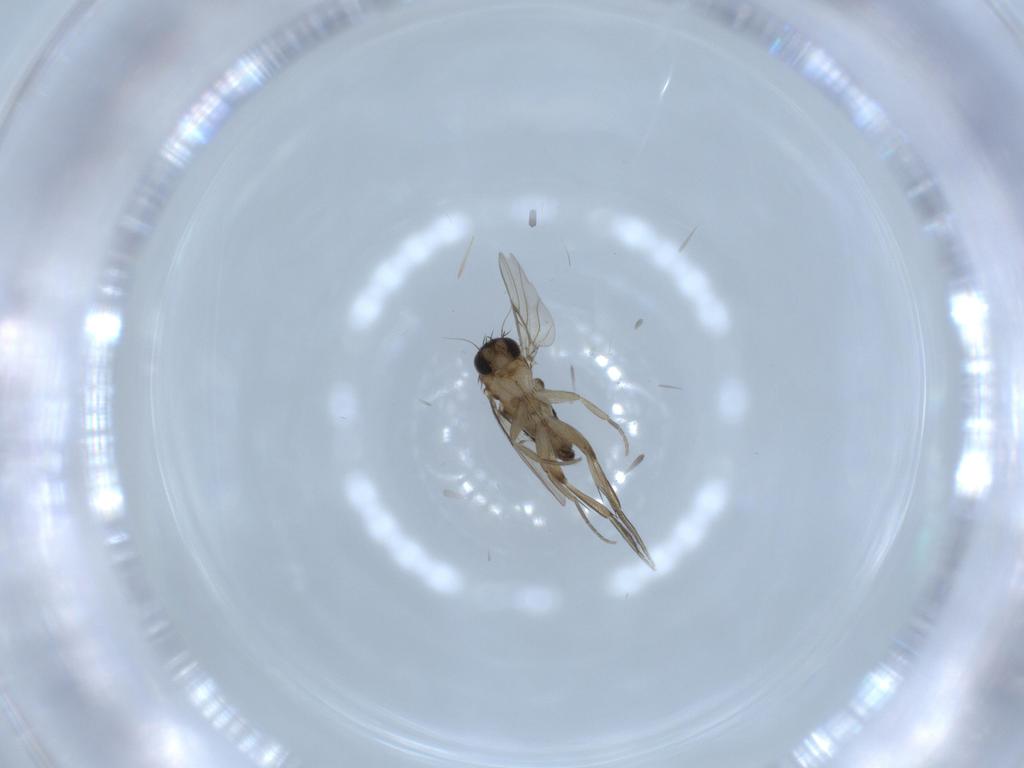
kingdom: Animalia
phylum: Arthropoda
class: Insecta
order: Diptera
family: Phoridae
